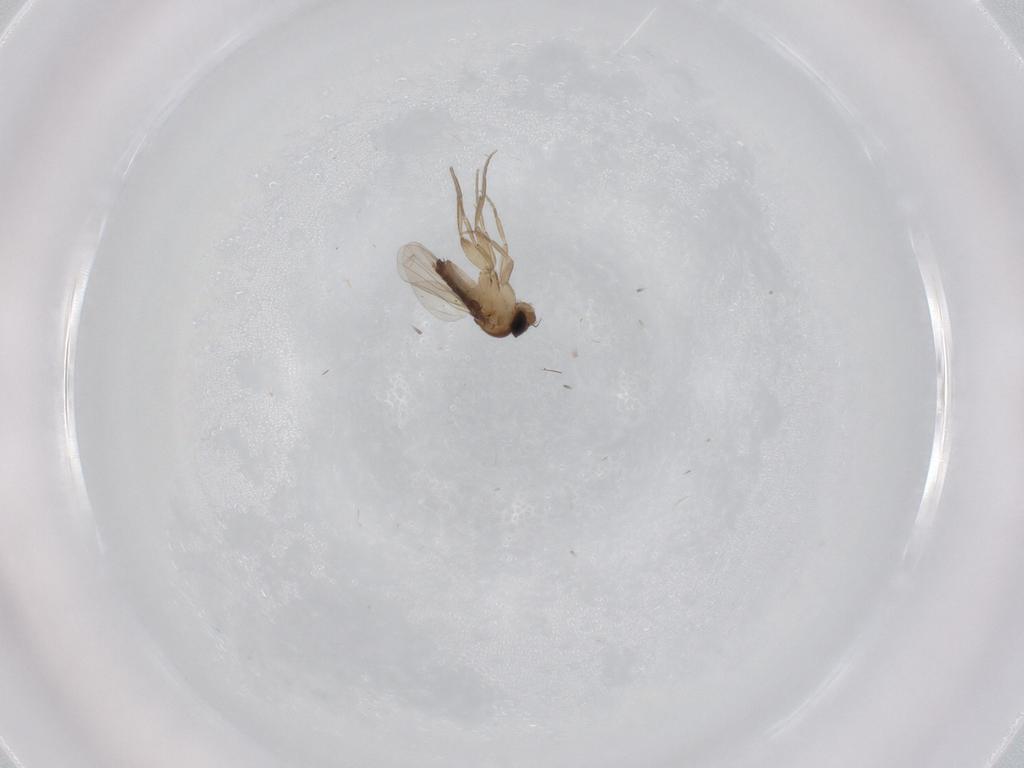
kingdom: Animalia
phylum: Arthropoda
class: Insecta
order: Diptera
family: Phoridae
